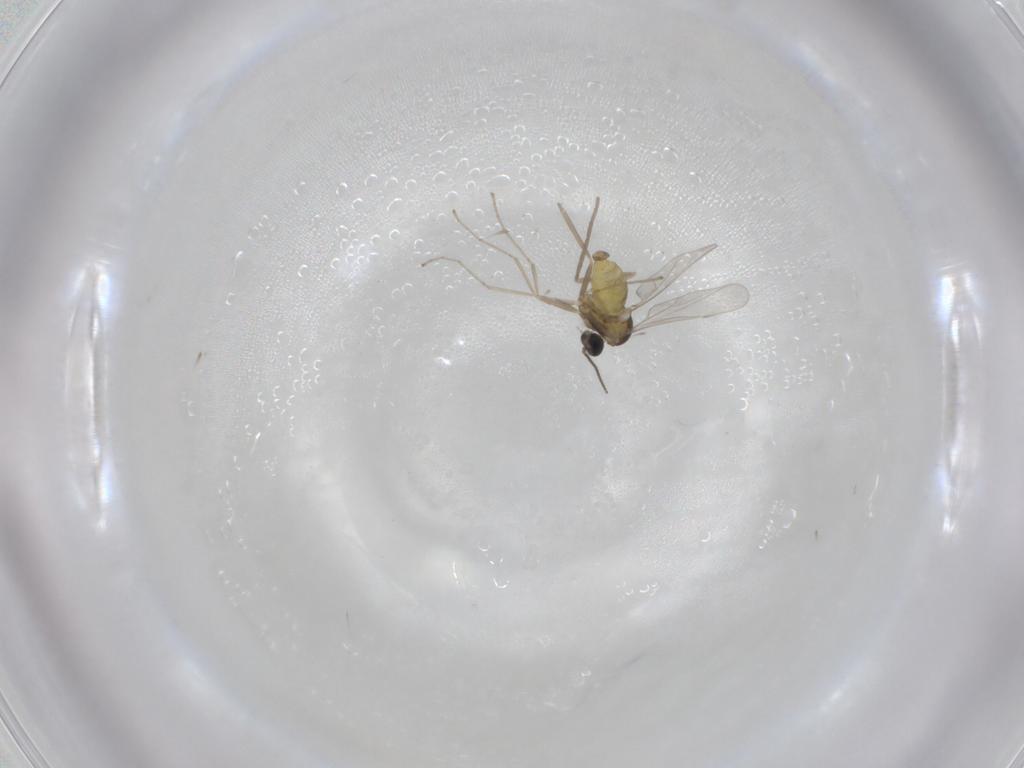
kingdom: Animalia
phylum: Arthropoda
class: Insecta
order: Diptera
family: Cecidomyiidae
